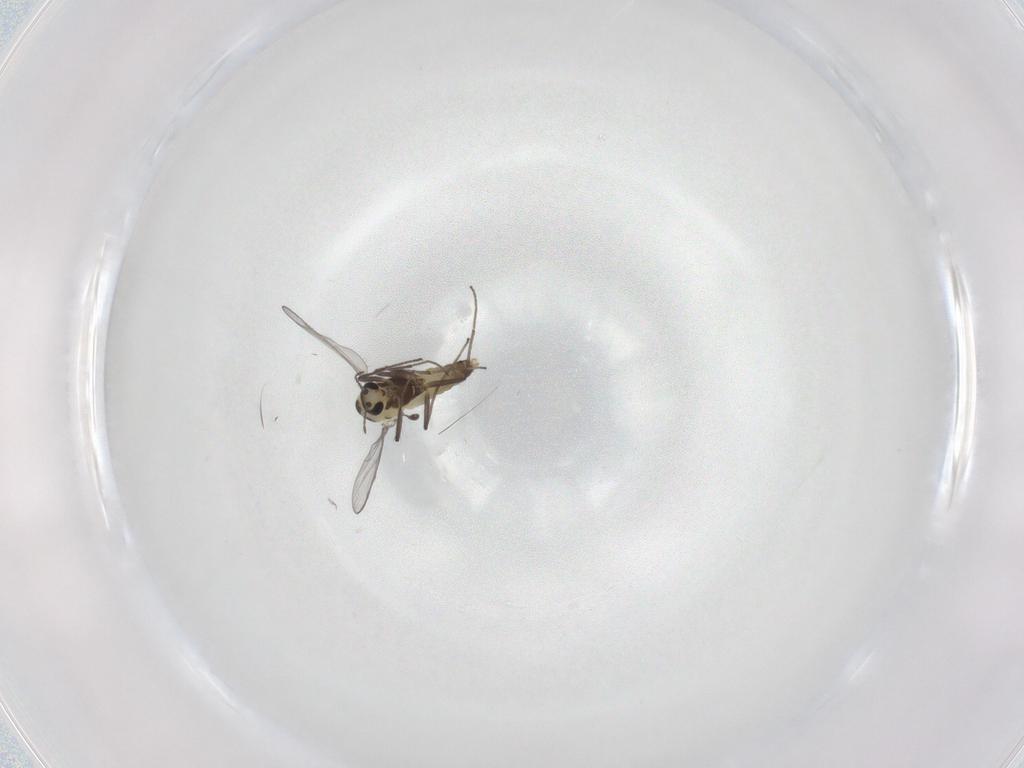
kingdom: Animalia
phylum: Arthropoda
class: Insecta
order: Diptera
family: Chironomidae
